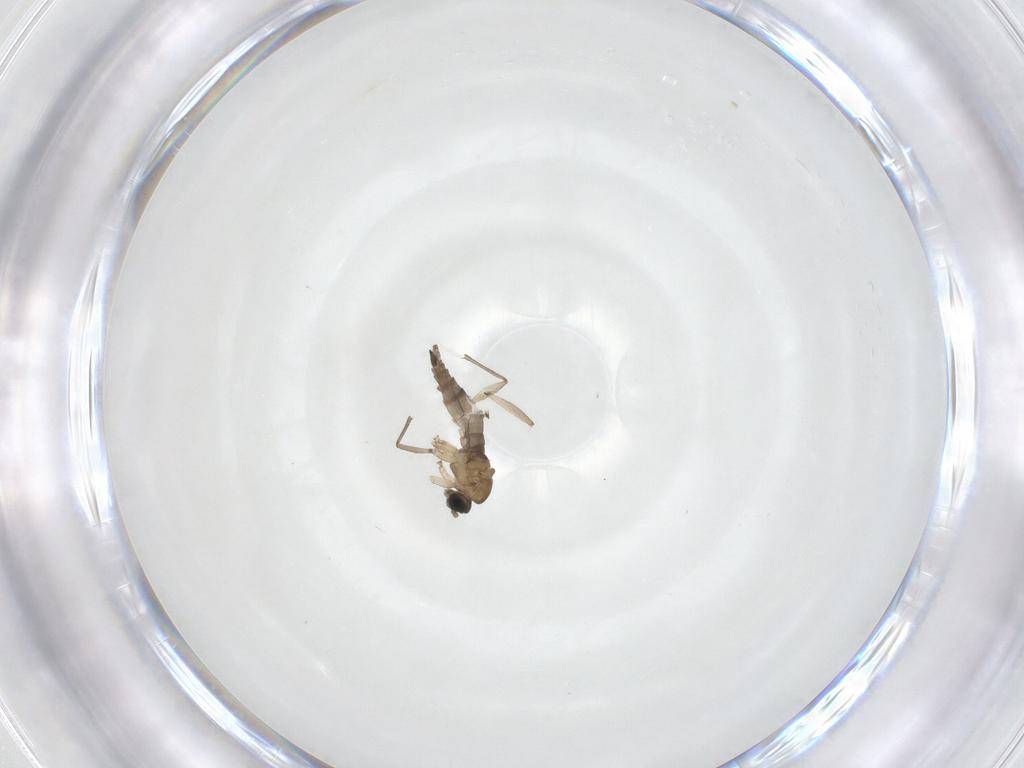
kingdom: Animalia
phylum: Arthropoda
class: Insecta
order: Diptera
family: Sciaridae
